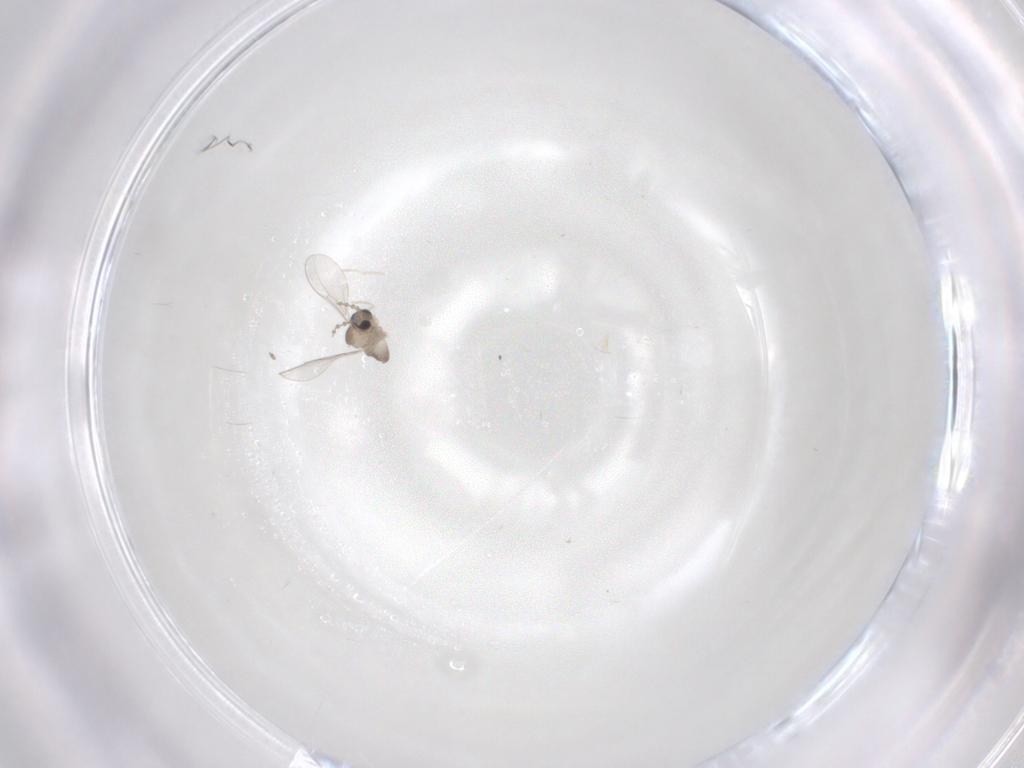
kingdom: Animalia
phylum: Arthropoda
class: Insecta
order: Diptera
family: Cecidomyiidae
